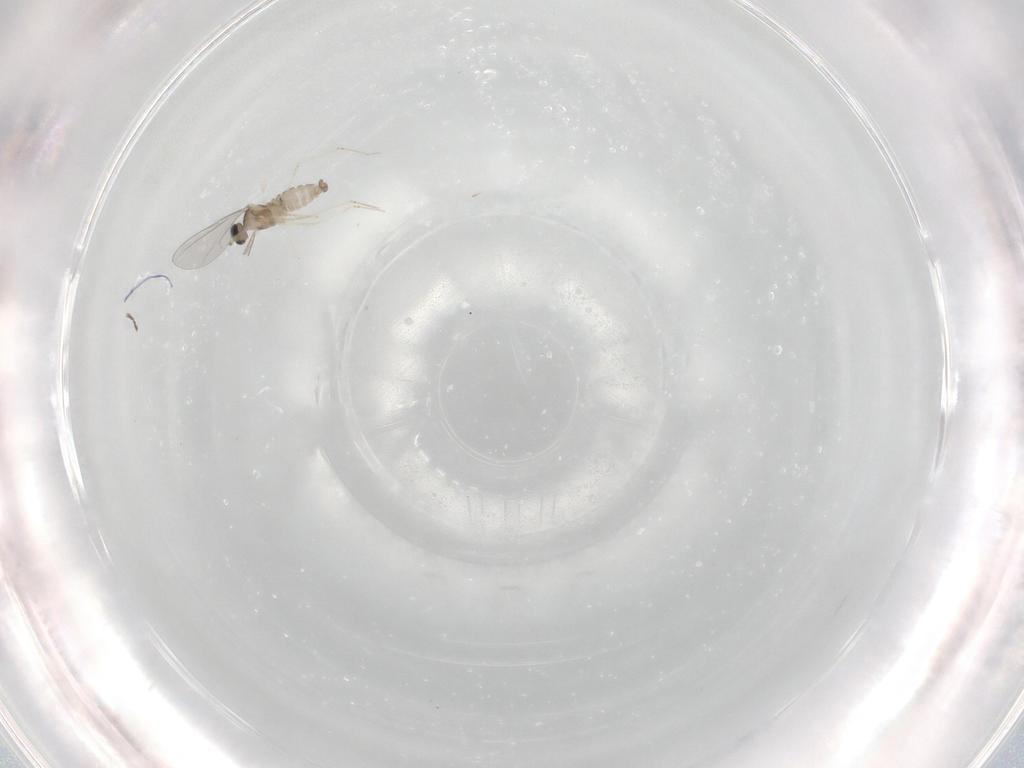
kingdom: Animalia
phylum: Arthropoda
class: Insecta
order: Diptera
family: Cecidomyiidae
